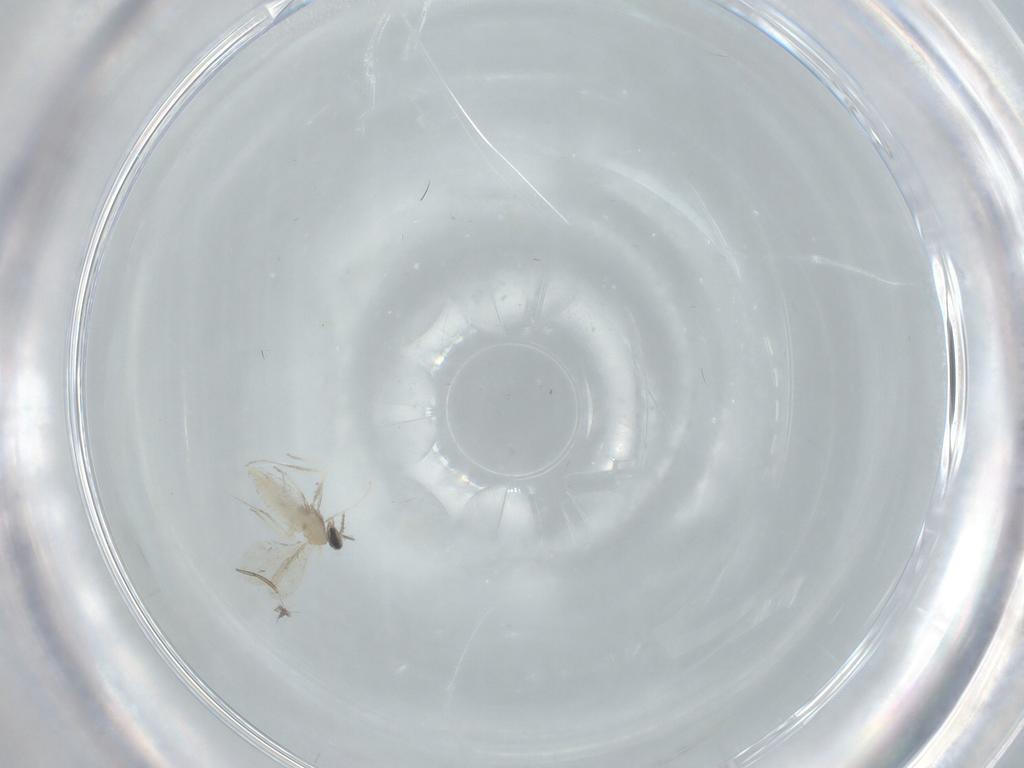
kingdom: Animalia
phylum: Arthropoda
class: Insecta
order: Diptera
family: Cecidomyiidae
